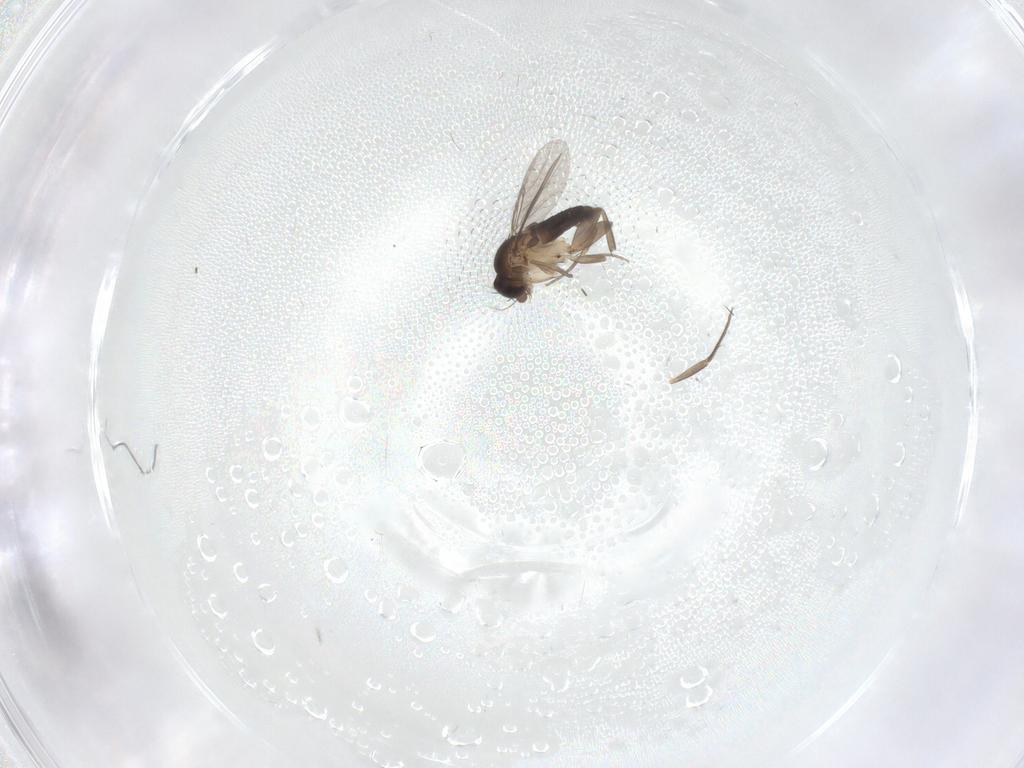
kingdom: Animalia
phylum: Arthropoda
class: Insecta
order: Diptera
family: Phoridae
